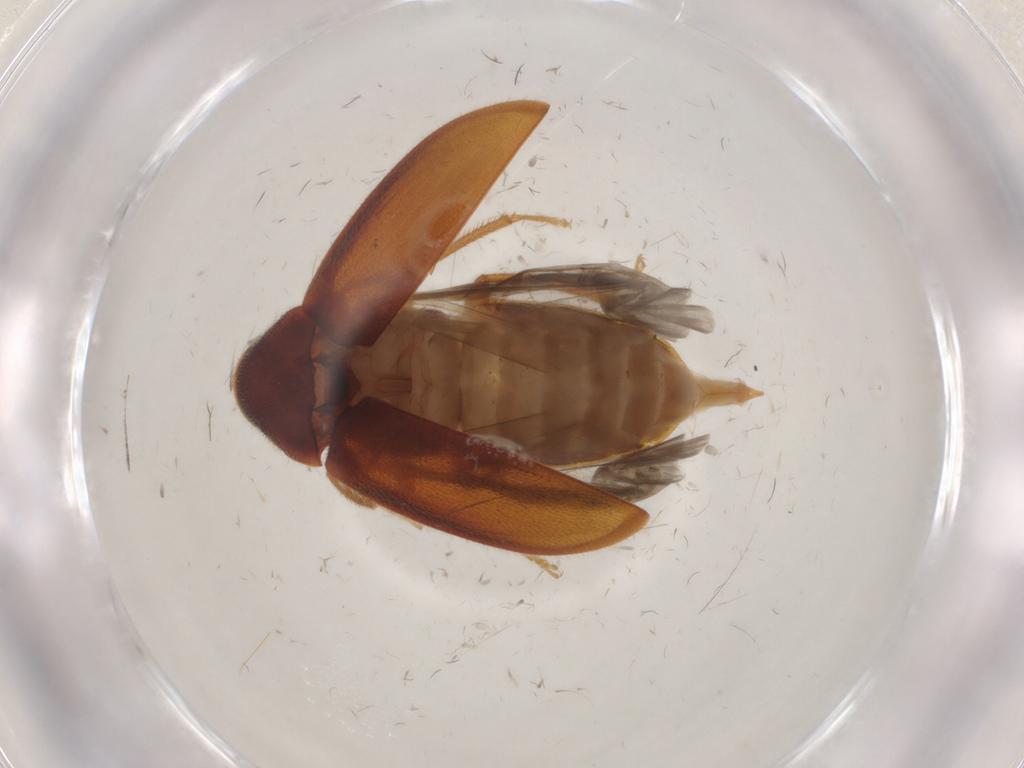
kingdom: Animalia
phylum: Arthropoda
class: Insecta
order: Coleoptera
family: Ptilodactylidae
